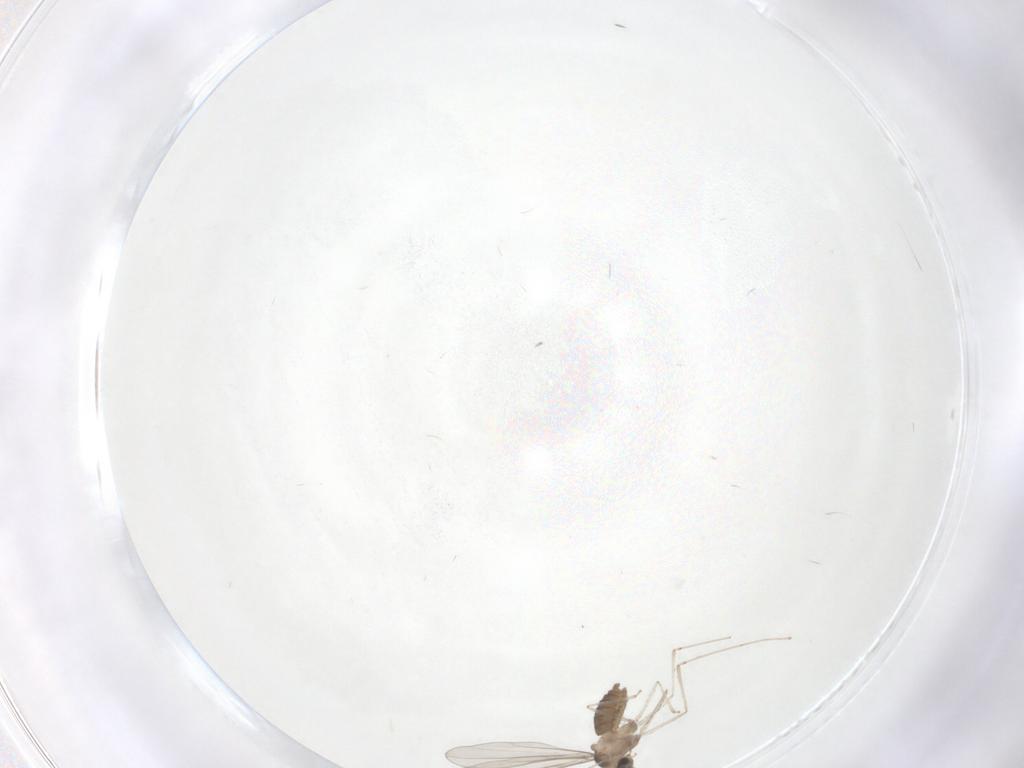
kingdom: Animalia
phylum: Arthropoda
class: Insecta
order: Diptera
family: Cecidomyiidae
